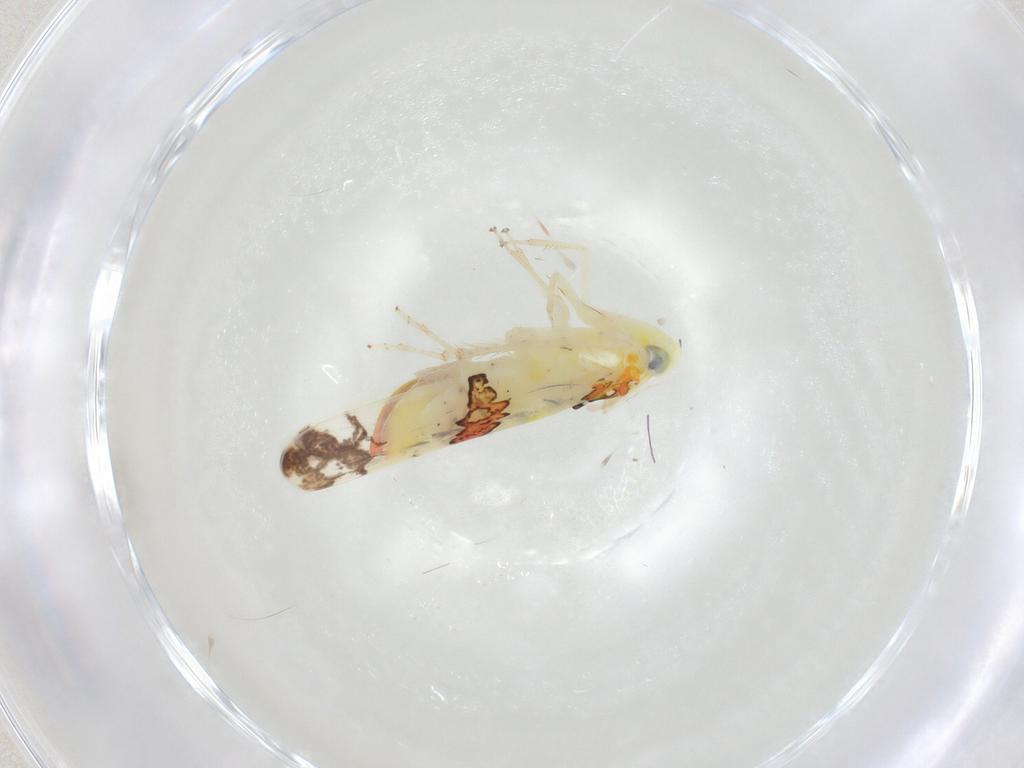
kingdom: Animalia
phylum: Arthropoda
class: Insecta
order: Hemiptera
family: Cicadellidae
